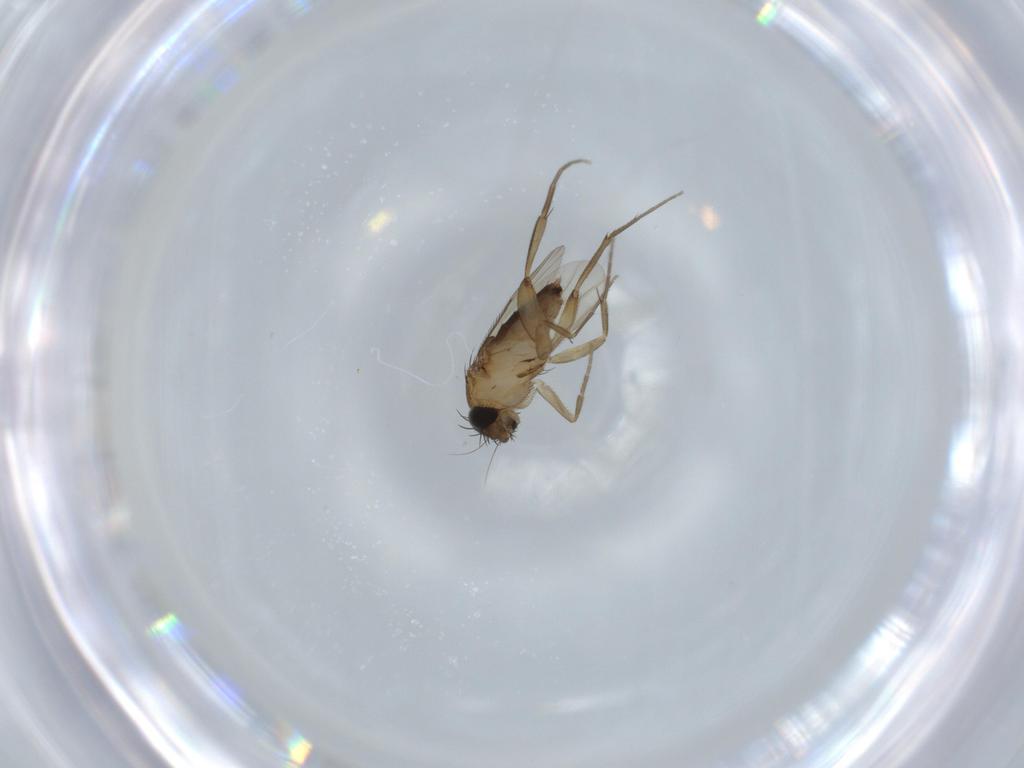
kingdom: Animalia
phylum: Arthropoda
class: Insecta
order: Diptera
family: Phoridae
